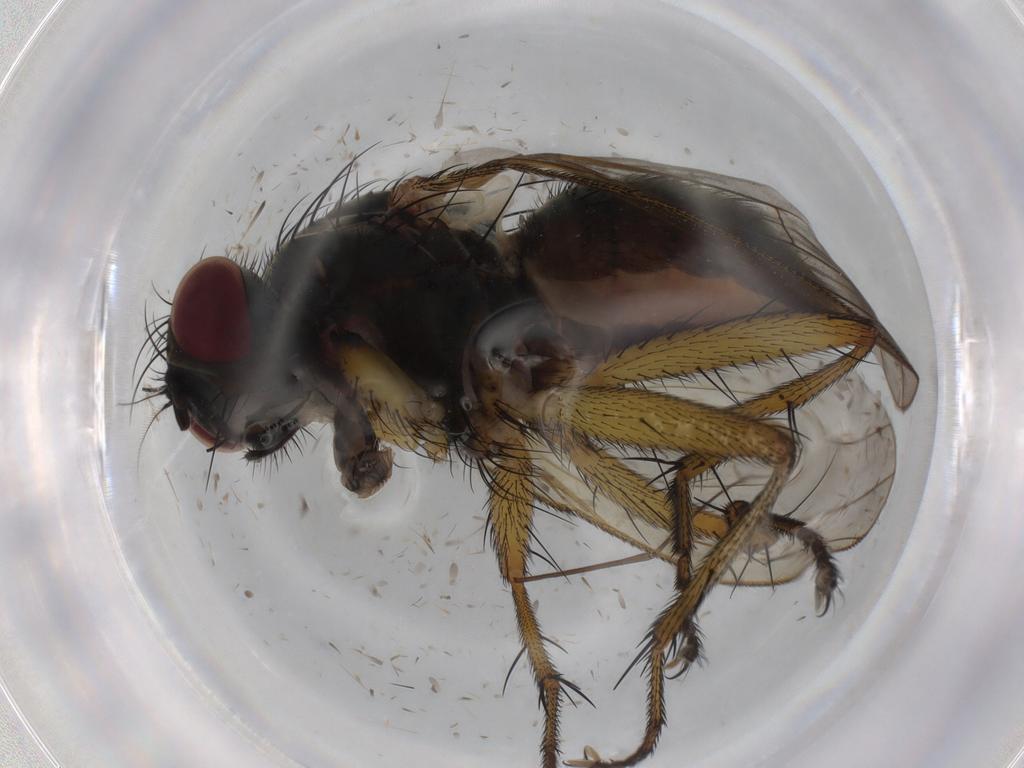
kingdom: Animalia
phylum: Arthropoda
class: Insecta
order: Diptera
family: Muscidae
